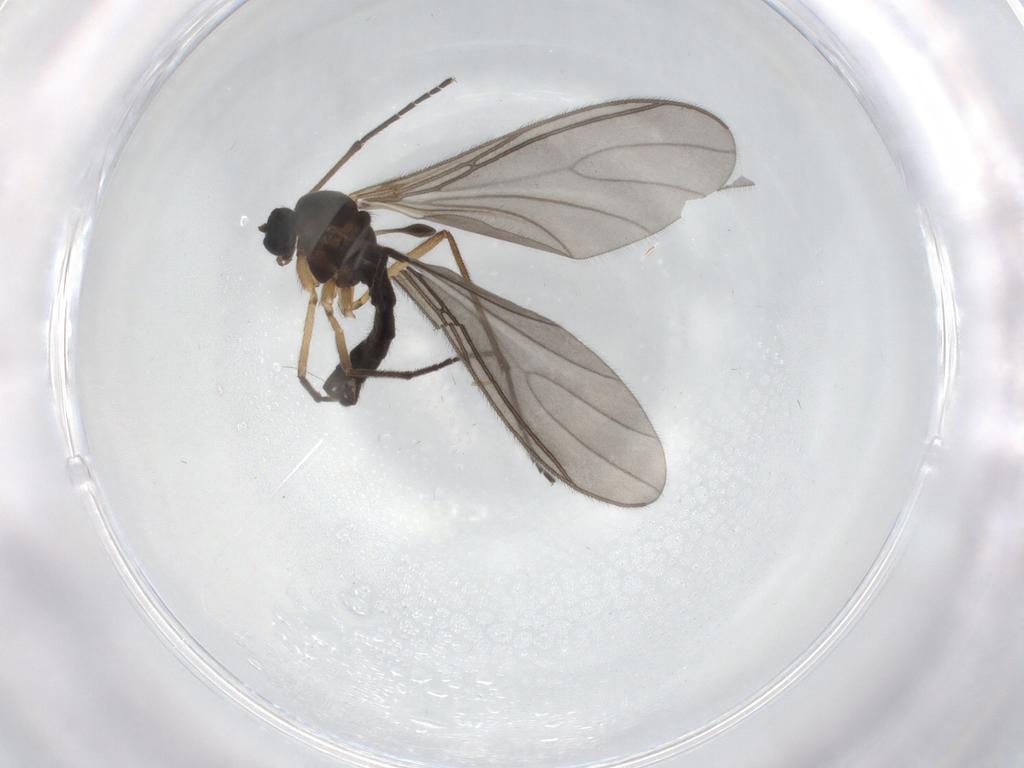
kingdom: Animalia
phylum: Arthropoda
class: Insecta
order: Diptera
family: Sciaridae
